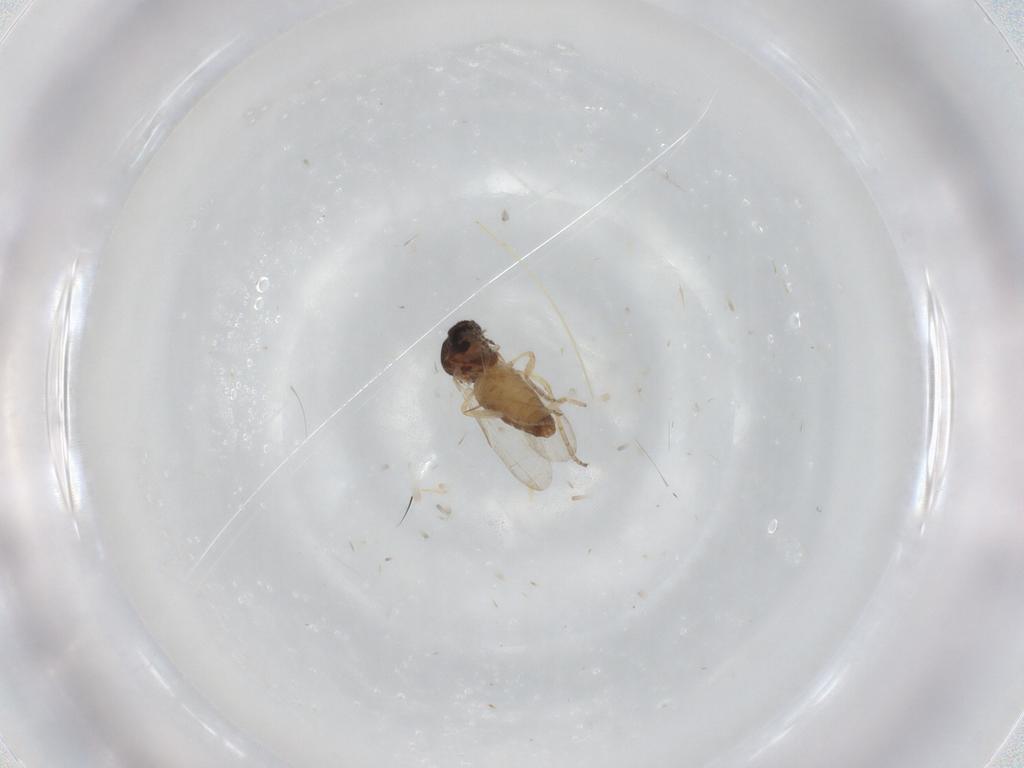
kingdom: Animalia
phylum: Arthropoda
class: Insecta
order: Diptera
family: Ceratopogonidae
